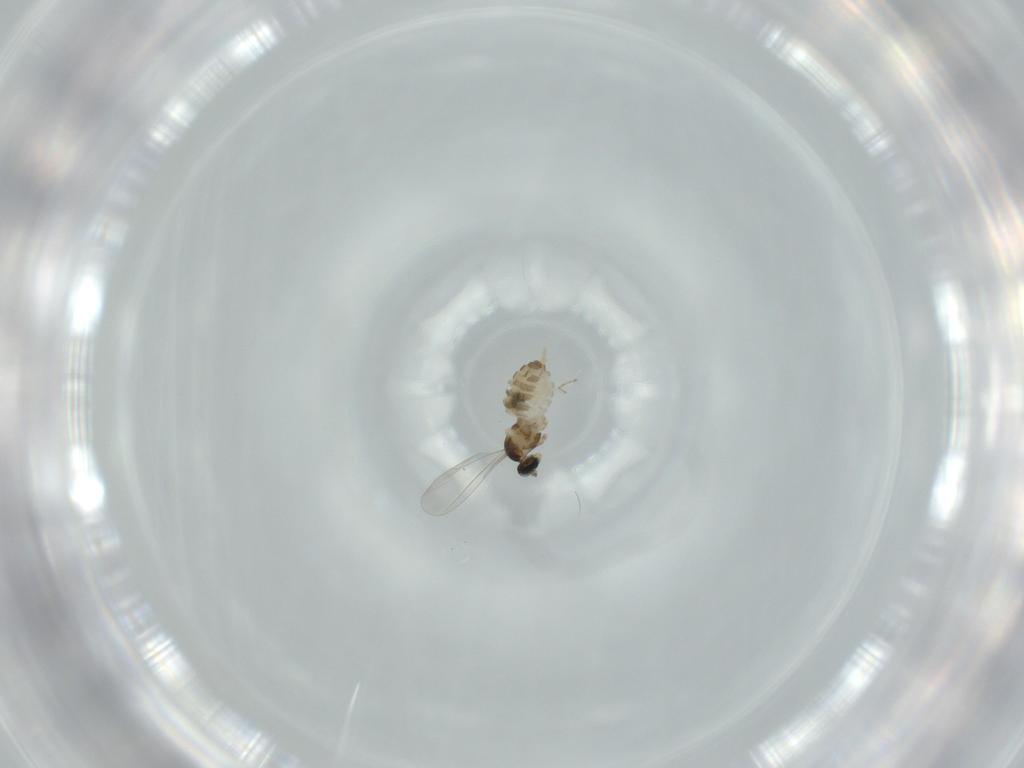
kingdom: Animalia
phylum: Arthropoda
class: Insecta
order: Diptera
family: Cecidomyiidae
